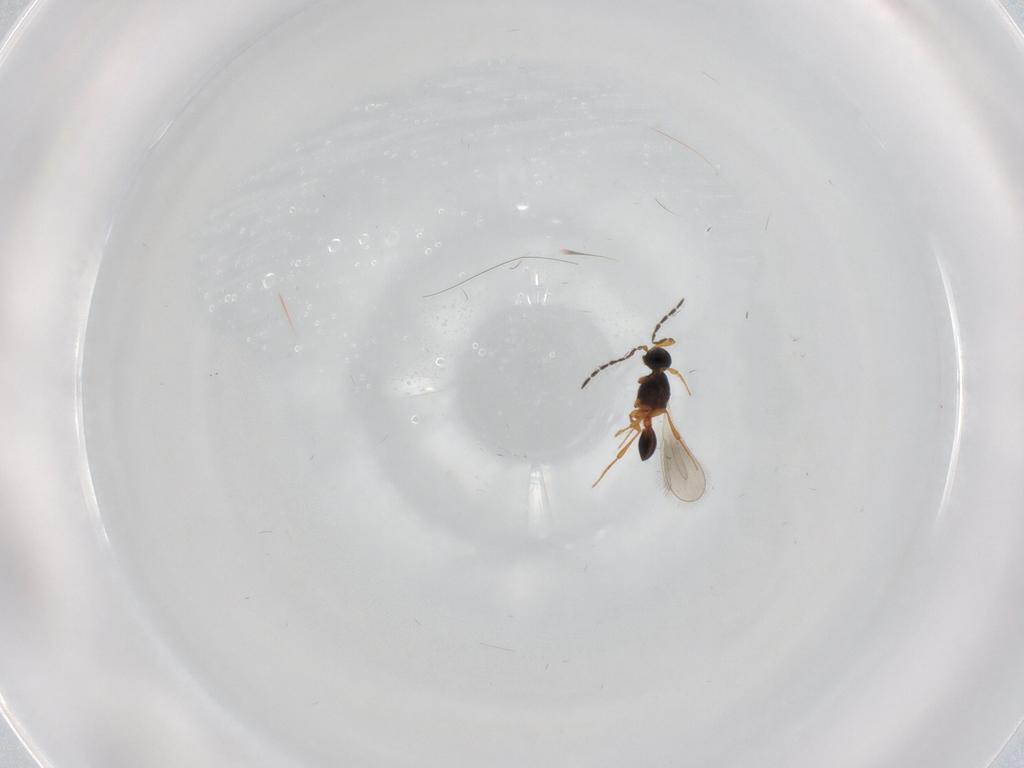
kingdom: Animalia
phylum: Arthropoda
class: Insecta
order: Hymenoptera
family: Platygastridae
